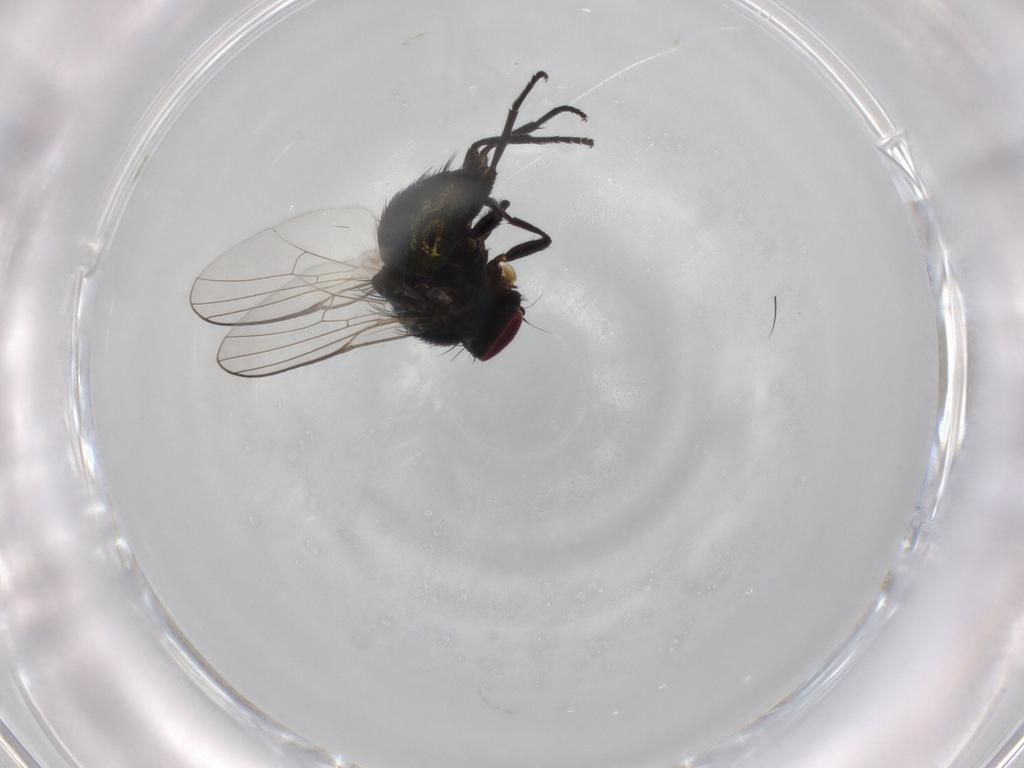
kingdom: Animalia
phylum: Arthropoda
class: Insecta
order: Diptera
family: Agromyzidae
